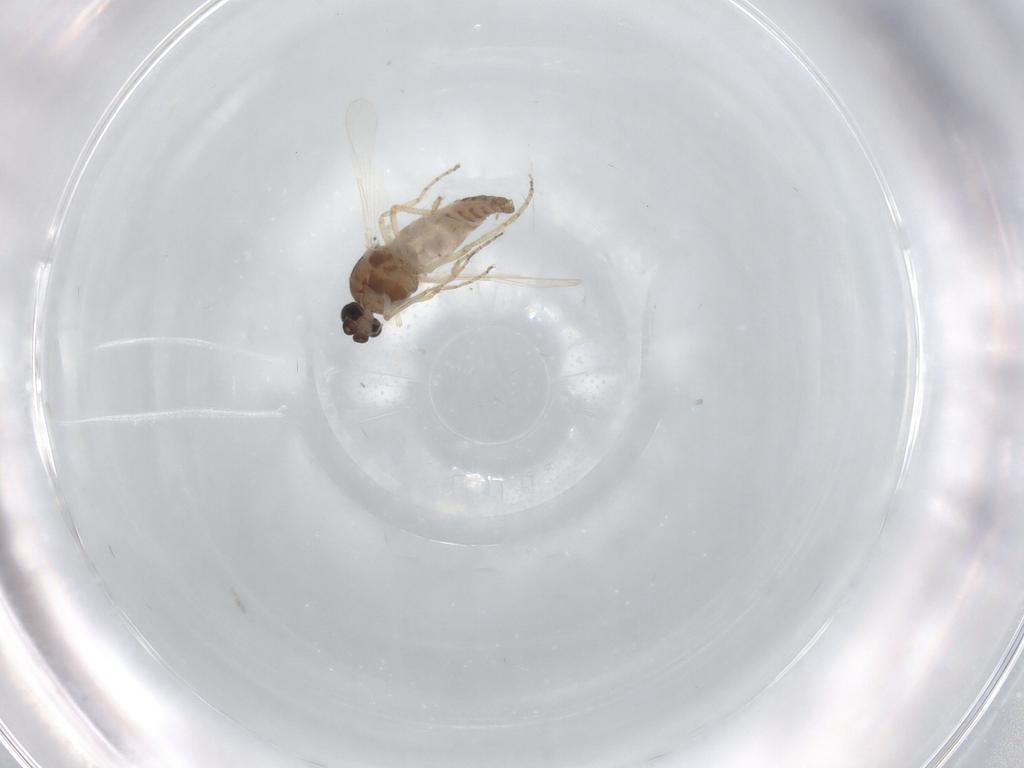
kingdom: Animalia
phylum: Arthropoda
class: Insecta
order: Diptera
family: Ceratopogonidae
